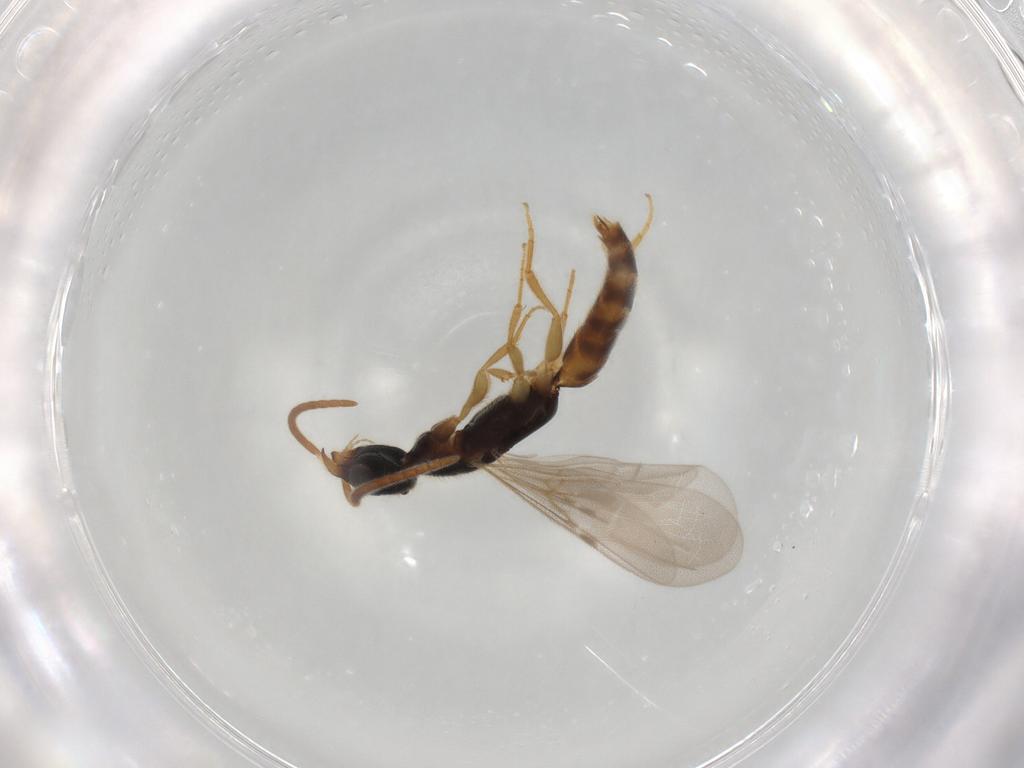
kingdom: Animalia
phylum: Arthropoda
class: Insecta
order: Hymenoptera
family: Bethylidae
